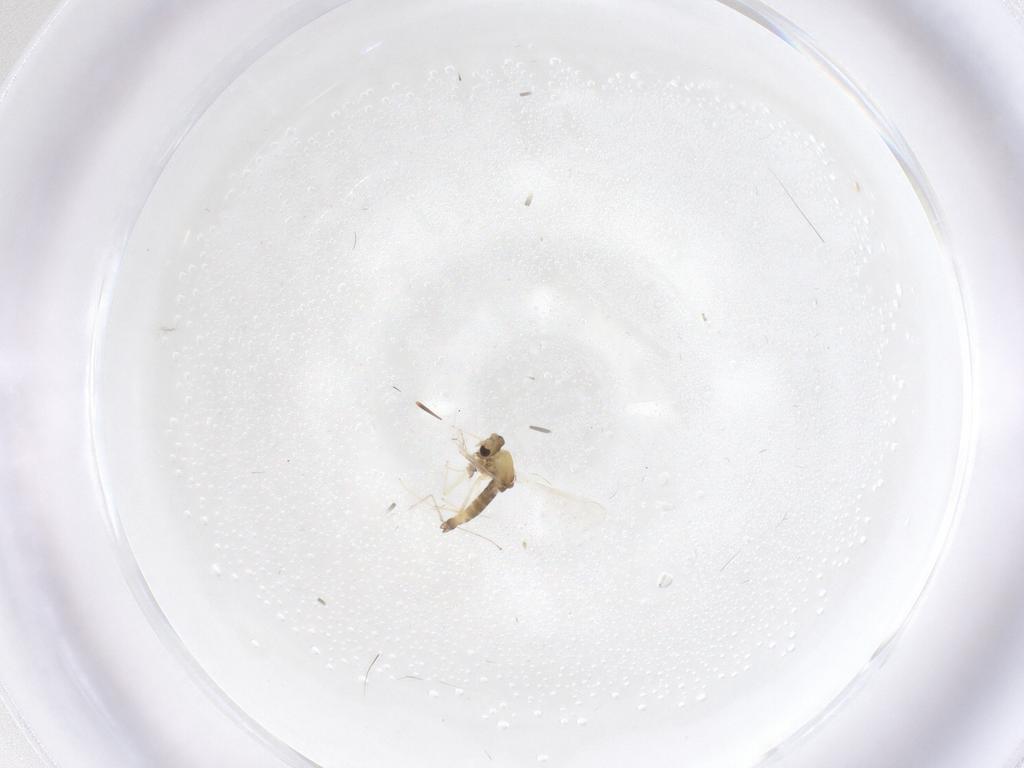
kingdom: Animalia
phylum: Arthropoda
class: Insecta
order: Diptera
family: Chironomidae
